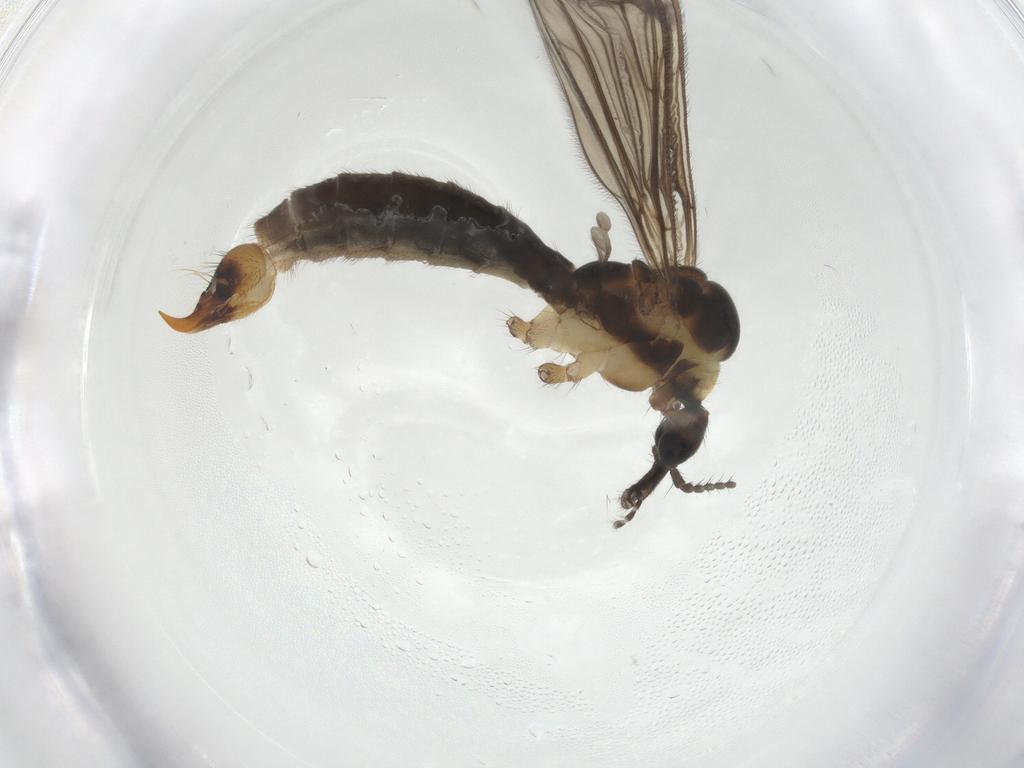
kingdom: Animalia
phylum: Arthropoda
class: Insecta
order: Diptera
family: Limoniidae
